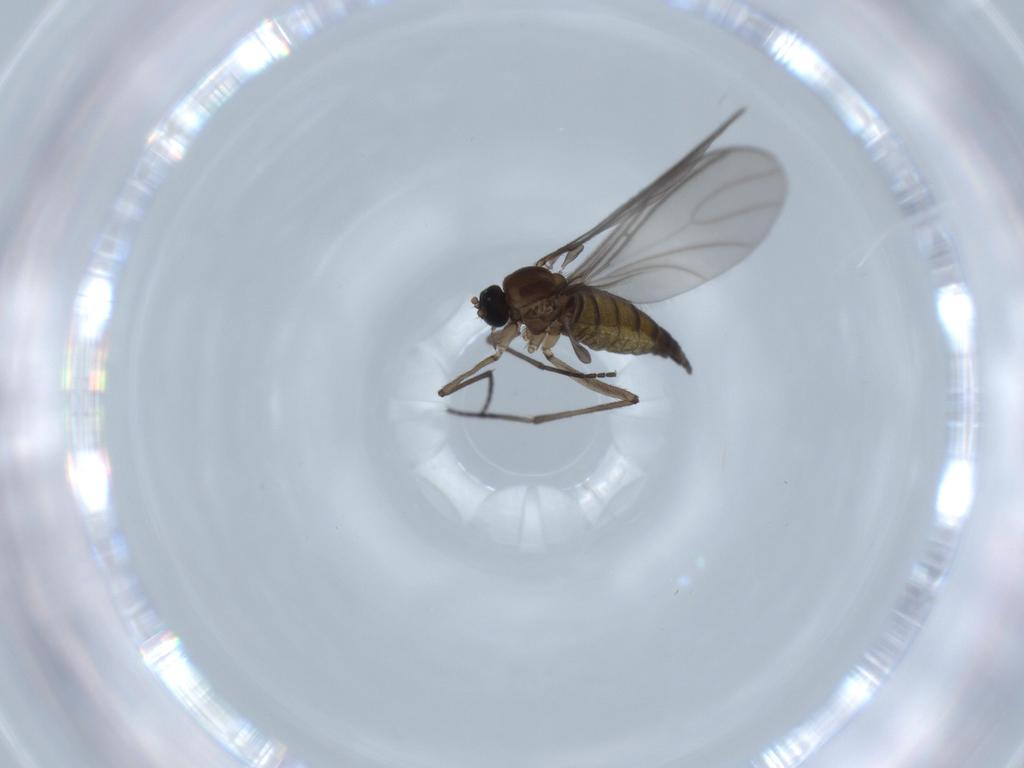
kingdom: Animalia
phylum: Arthropoda
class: Insecta
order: Diptera
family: Sciaridae
